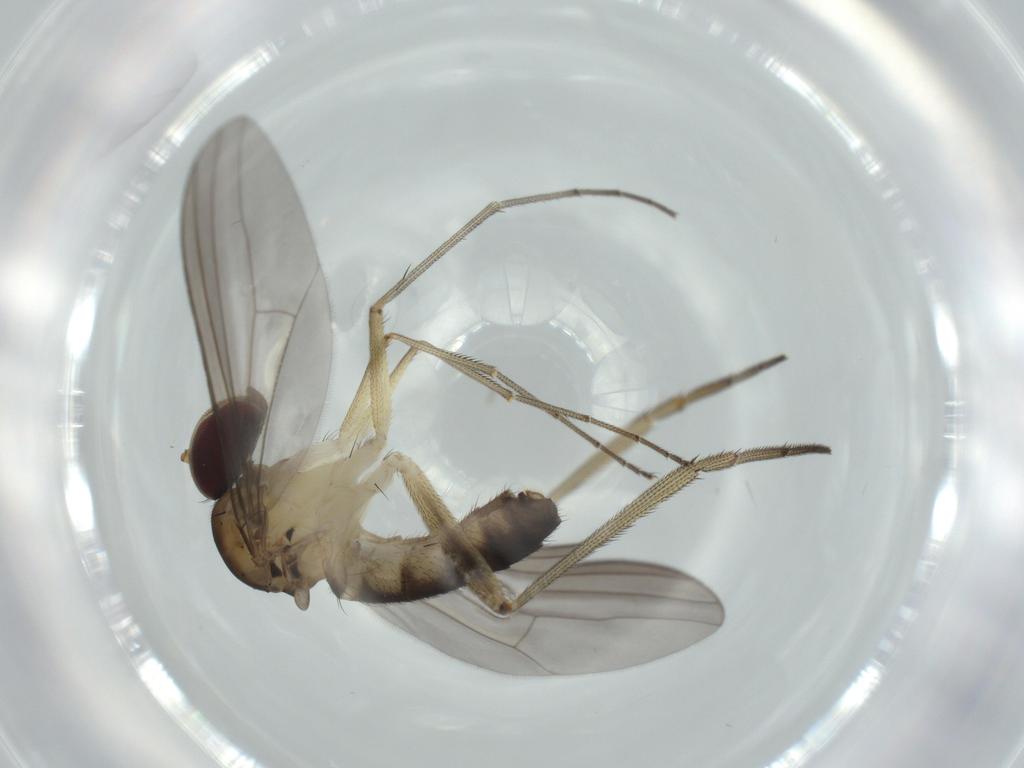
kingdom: Animalia
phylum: Arthropoda
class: Insecta
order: Diptera
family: Chironomidae
